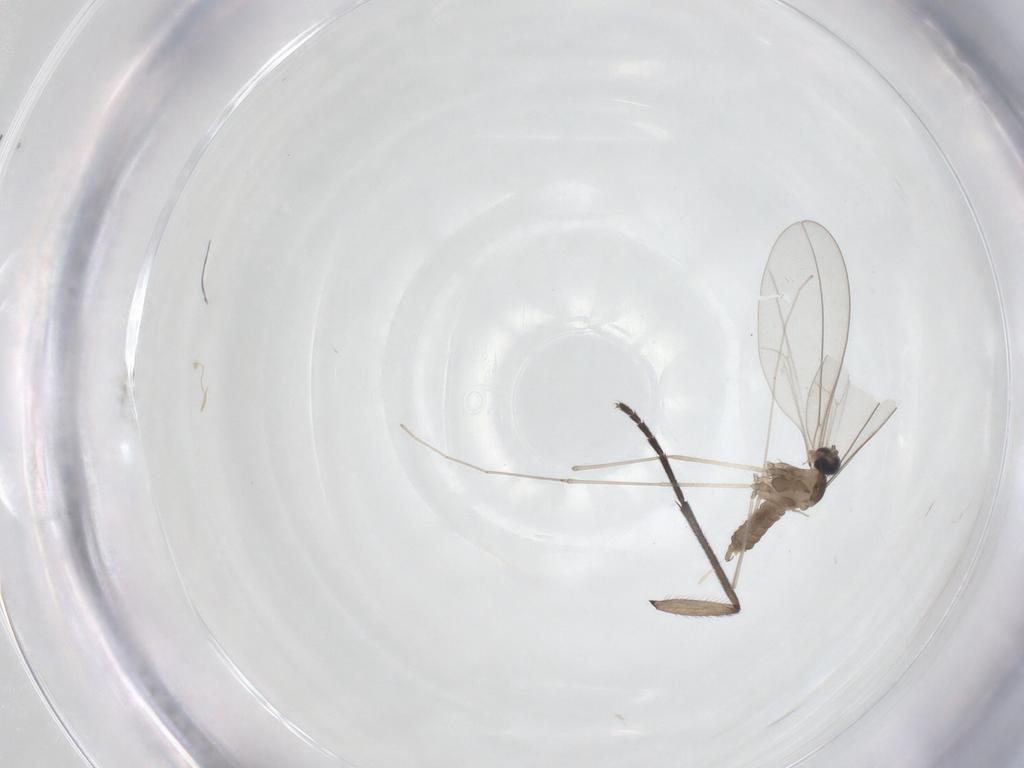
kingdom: Animalia
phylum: Arthropoda
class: Insecta
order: Diptera
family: Cecidomyiidae
